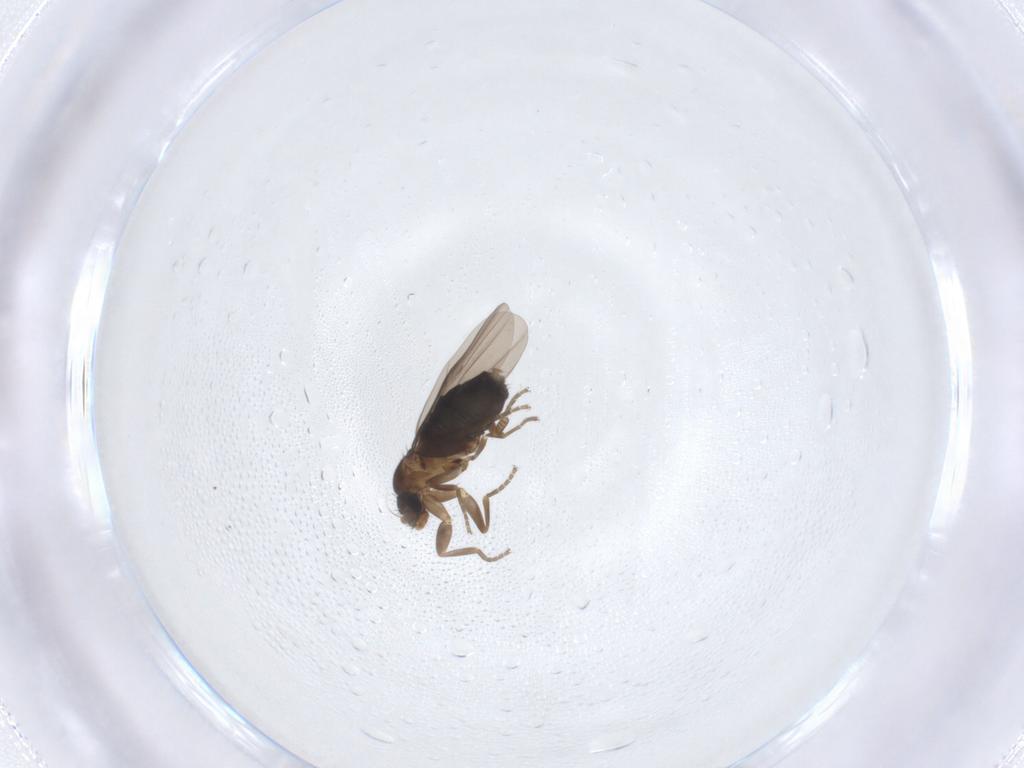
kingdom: Animalia
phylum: Arthropoda
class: Insecta
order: Diptera
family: Phoridae
